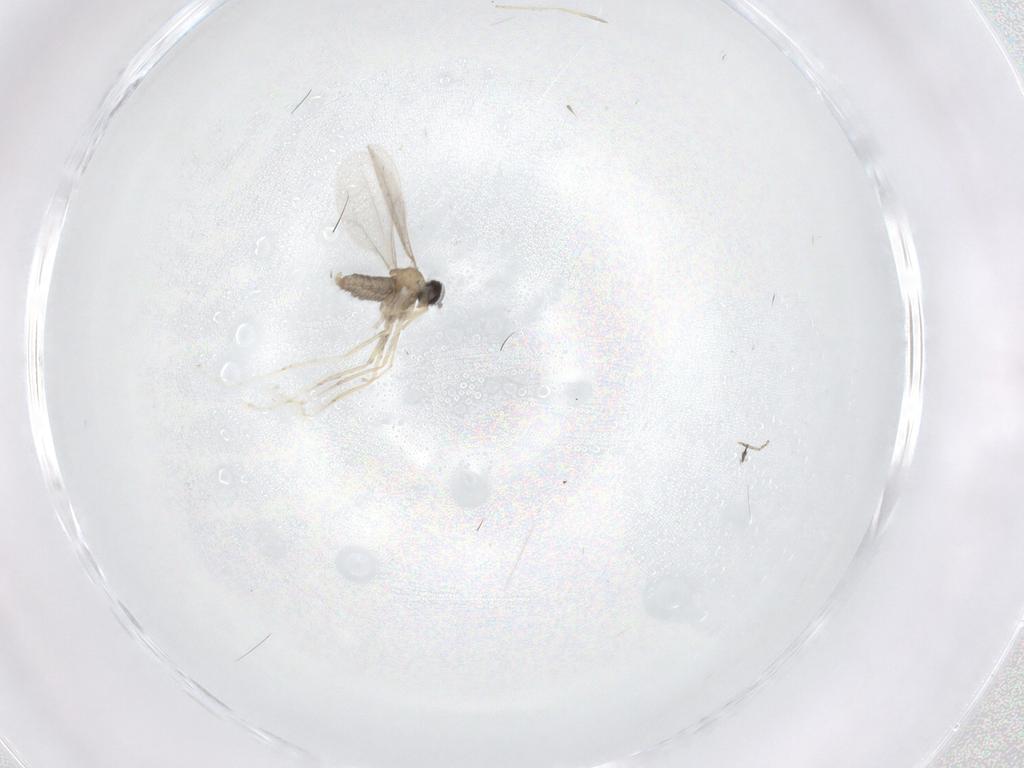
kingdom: Animalia
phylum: Arthropoda
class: Insecta
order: Diptera
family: Cecidomyiidae
